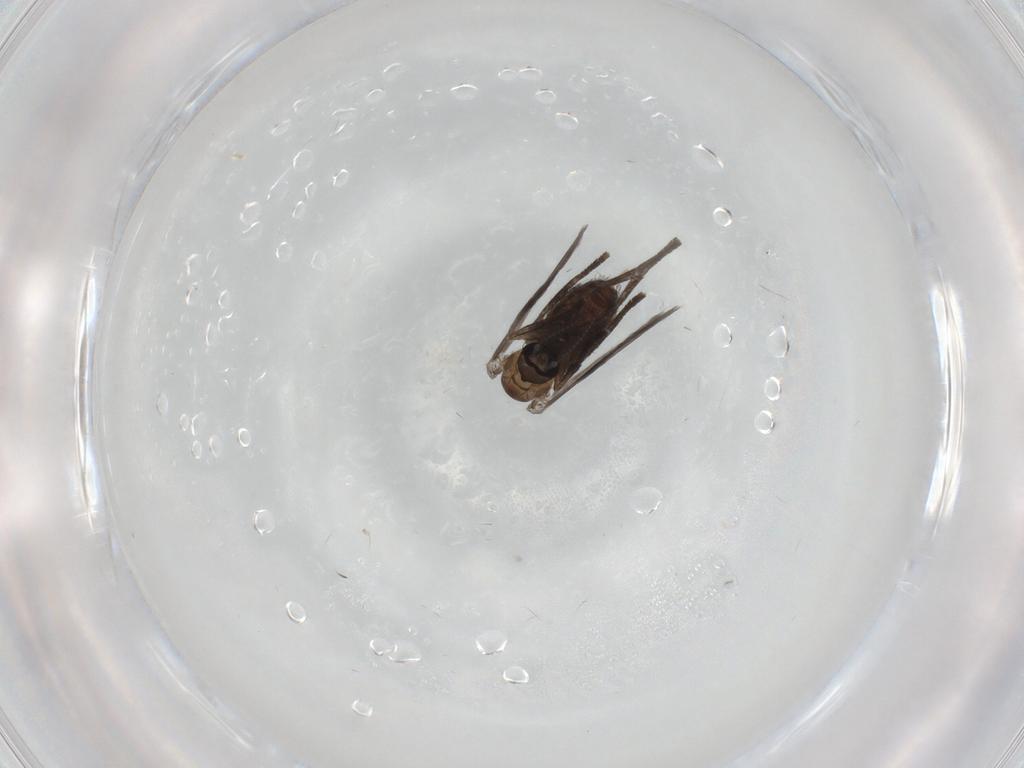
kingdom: Animalia
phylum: Arthropoda
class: Insecta
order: Diptera
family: Psychodidae
